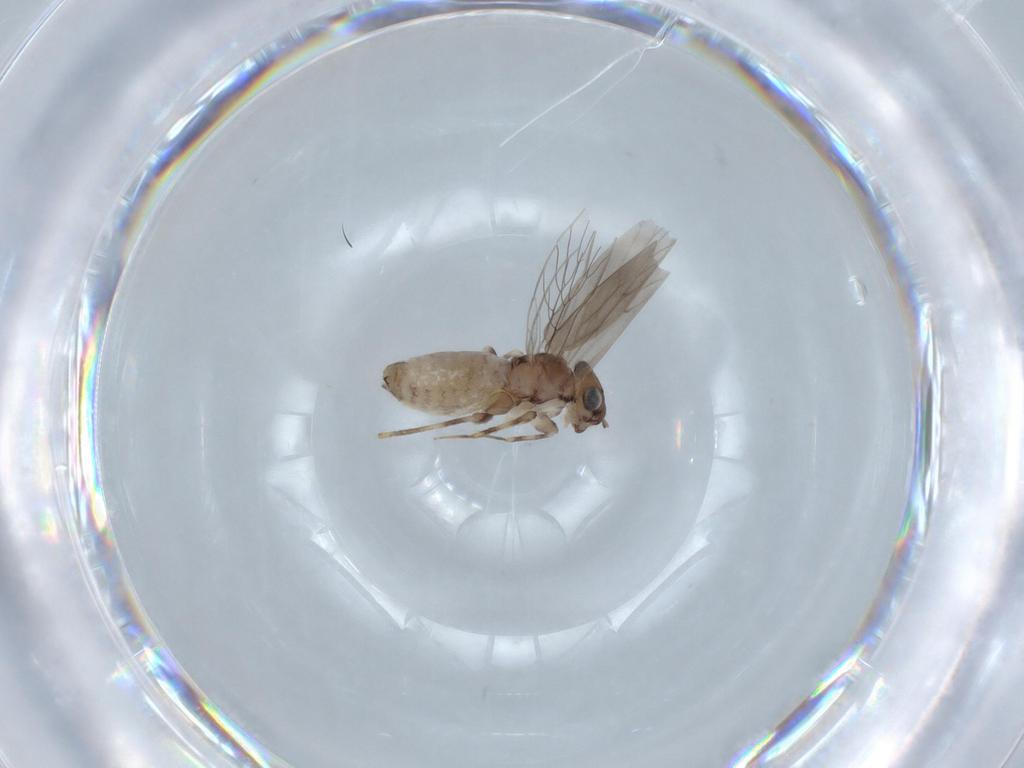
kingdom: Animalia
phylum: Arthropoda
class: Insecta
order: Psocodea
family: Lepidopsocidae
